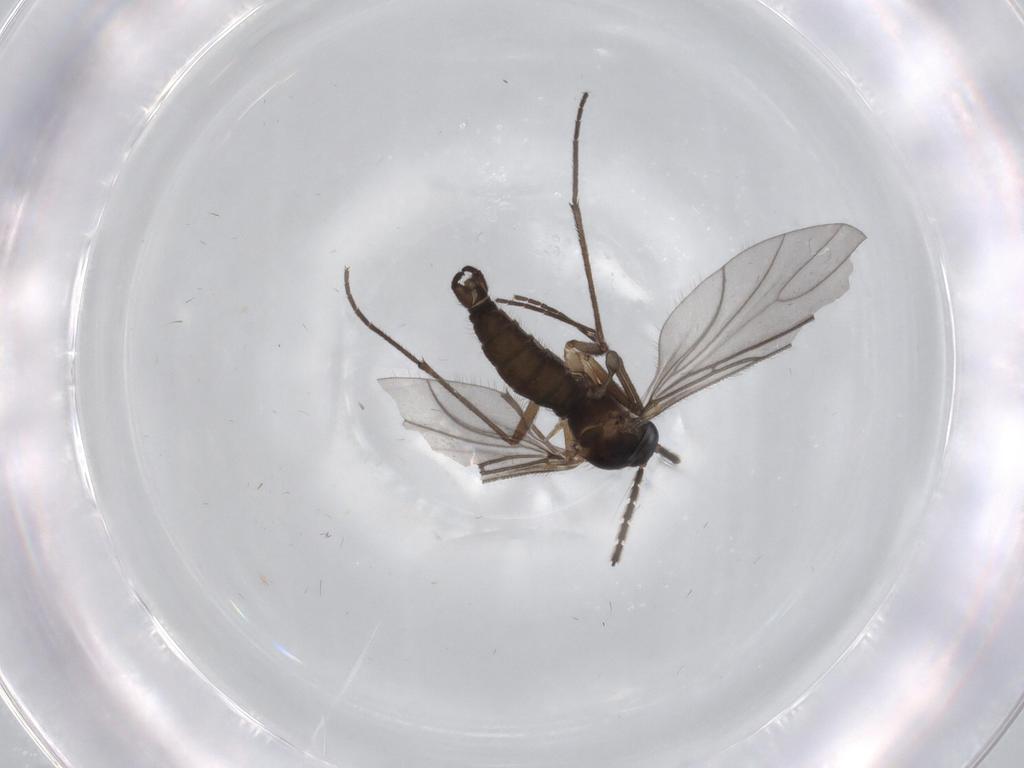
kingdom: Animalia
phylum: Arthropoda
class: Insecta
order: Diptera
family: Sciaridae
